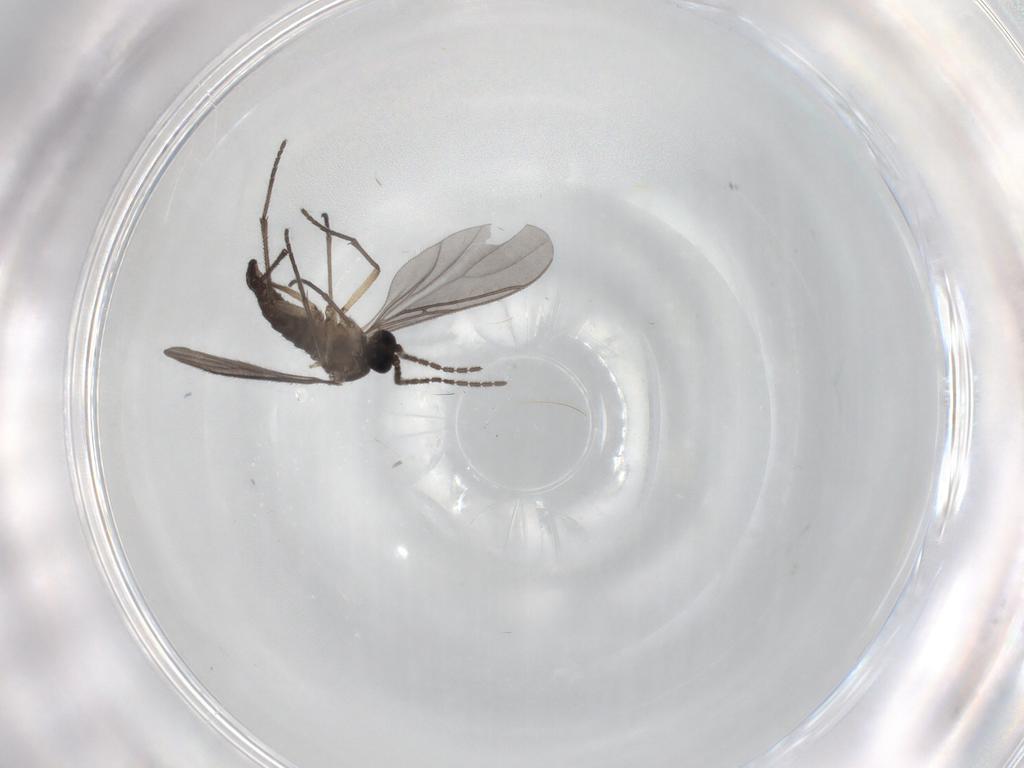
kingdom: Animalia
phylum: Arthropoda
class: Insecta
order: Diptera
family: Sciaridae
